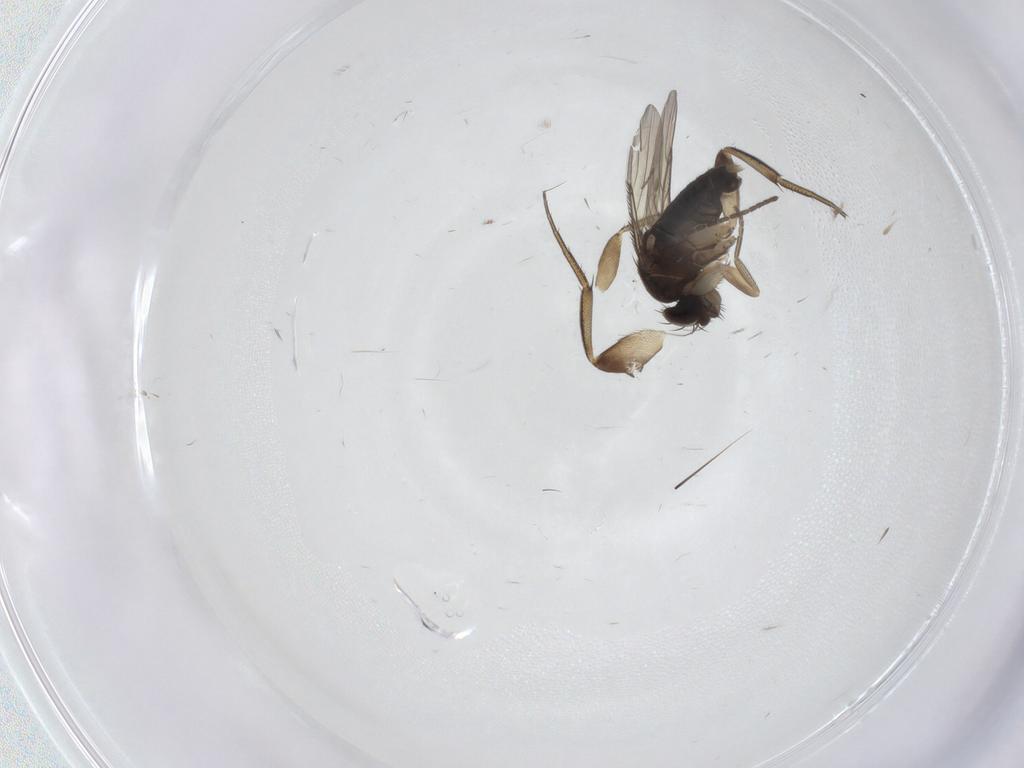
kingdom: Animalia
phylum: Arthropoda
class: Insecta
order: Diptera
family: Phoridae
